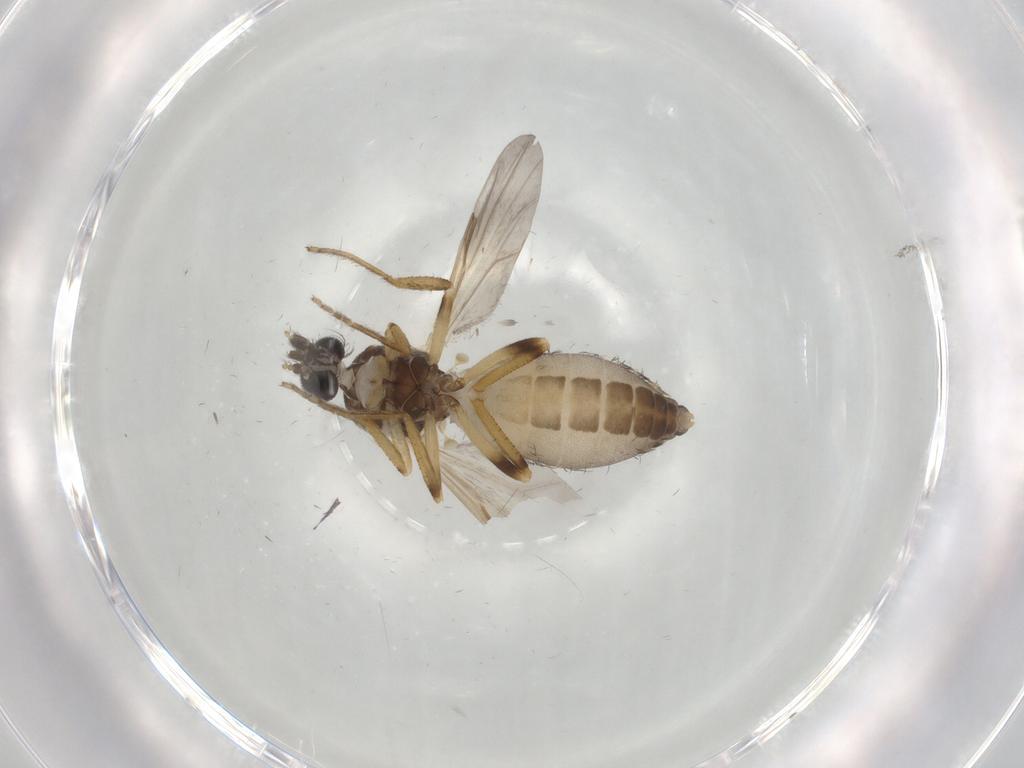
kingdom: Animalia
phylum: Arthropoda
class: Insecta
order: Diptera
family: Ceratopogonidae
